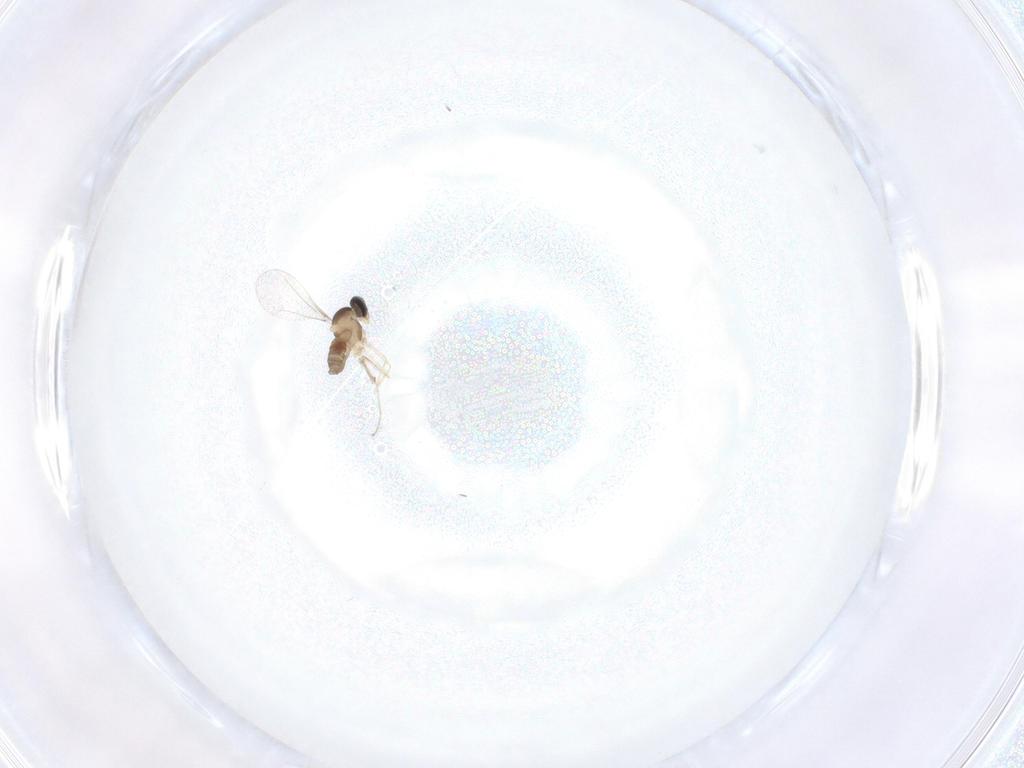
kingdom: Animalia
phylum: Arthropoda
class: Insecta
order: Diptera
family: Cecidomyiidae
